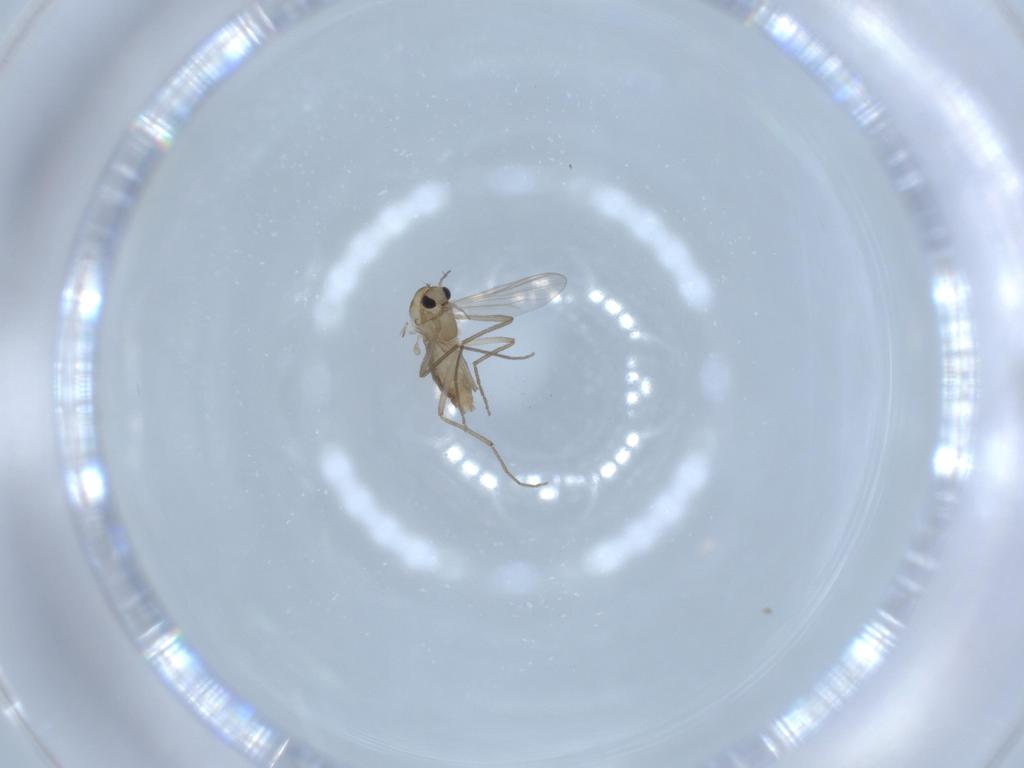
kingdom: Animalia
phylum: Arthropoda
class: Insecta
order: Diptera
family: Chironomidae
